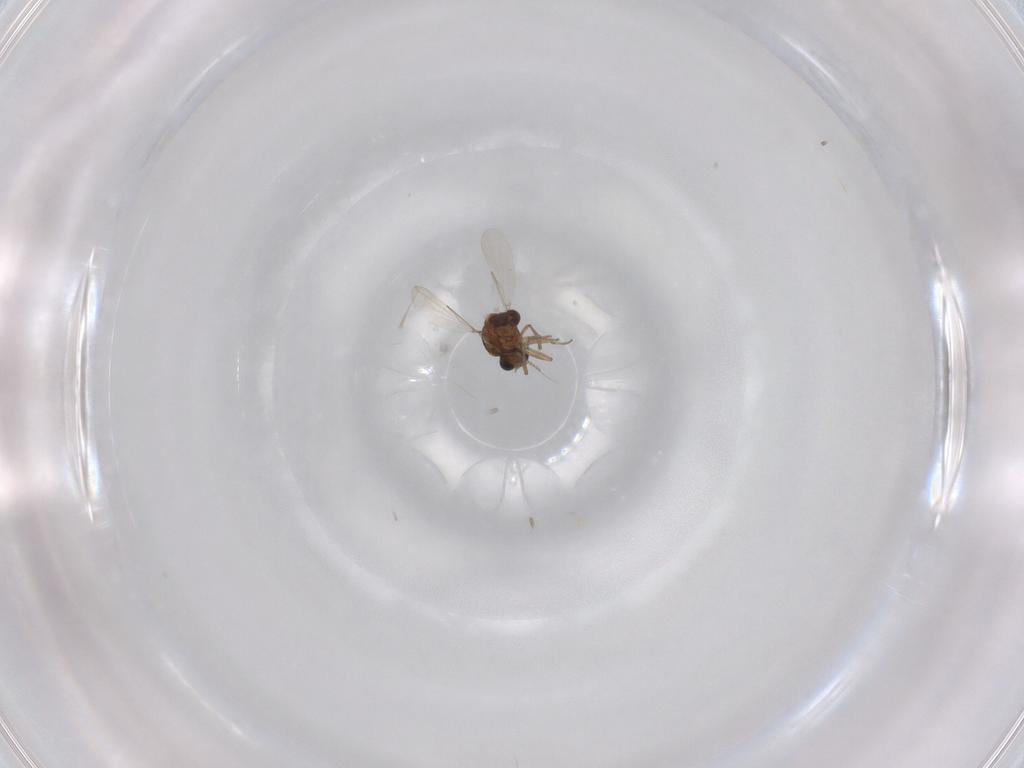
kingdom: Animalia
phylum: Arthropoda
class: Insecta
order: Diptera
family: Ceratopogonidae
